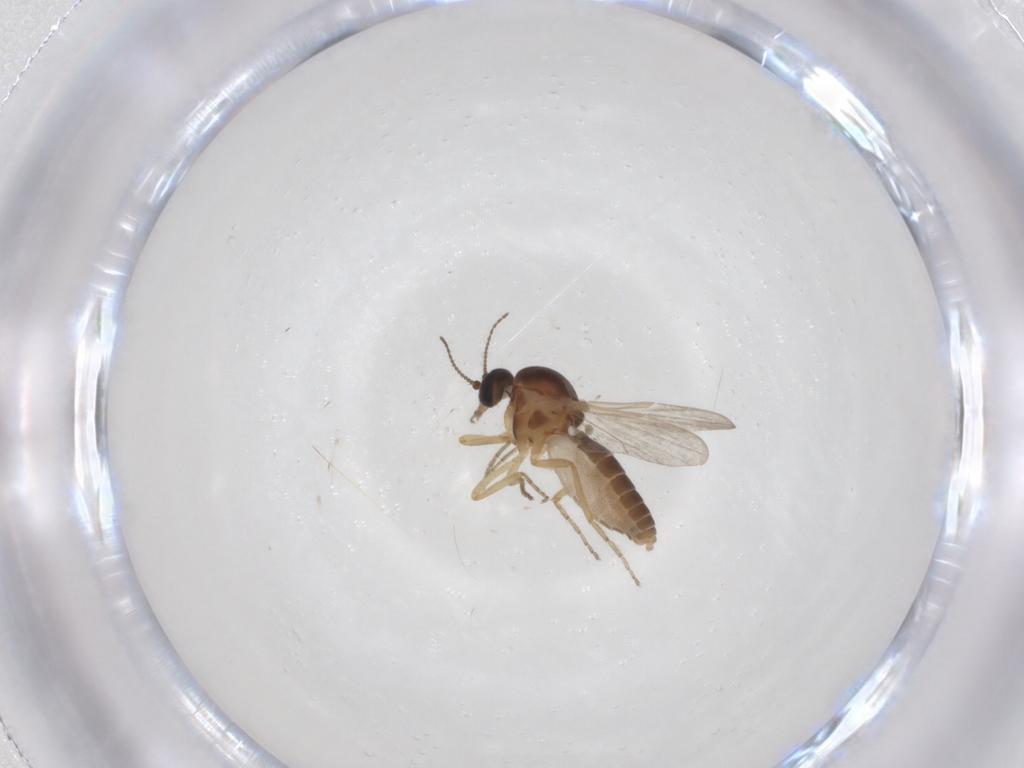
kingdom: Animalia
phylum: Arthropoda
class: Insecta
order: Diptera
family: Ceratopogonidae
